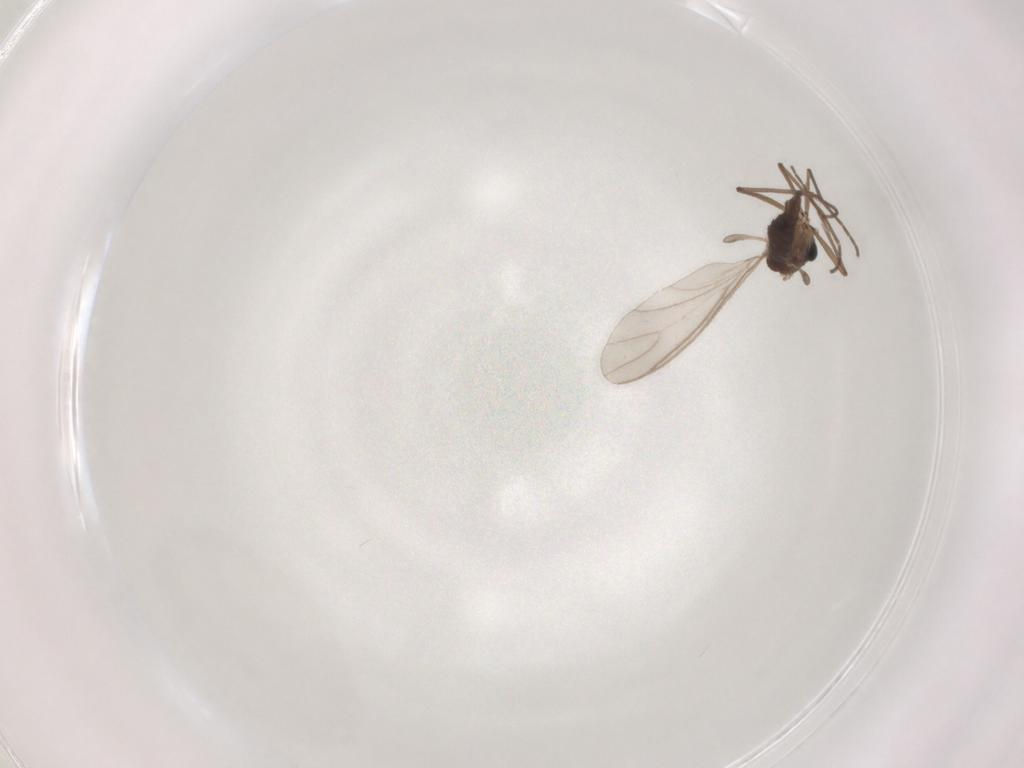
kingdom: Animalia
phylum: Arthropoda
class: Insecta
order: Diptera
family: Sciaridae
